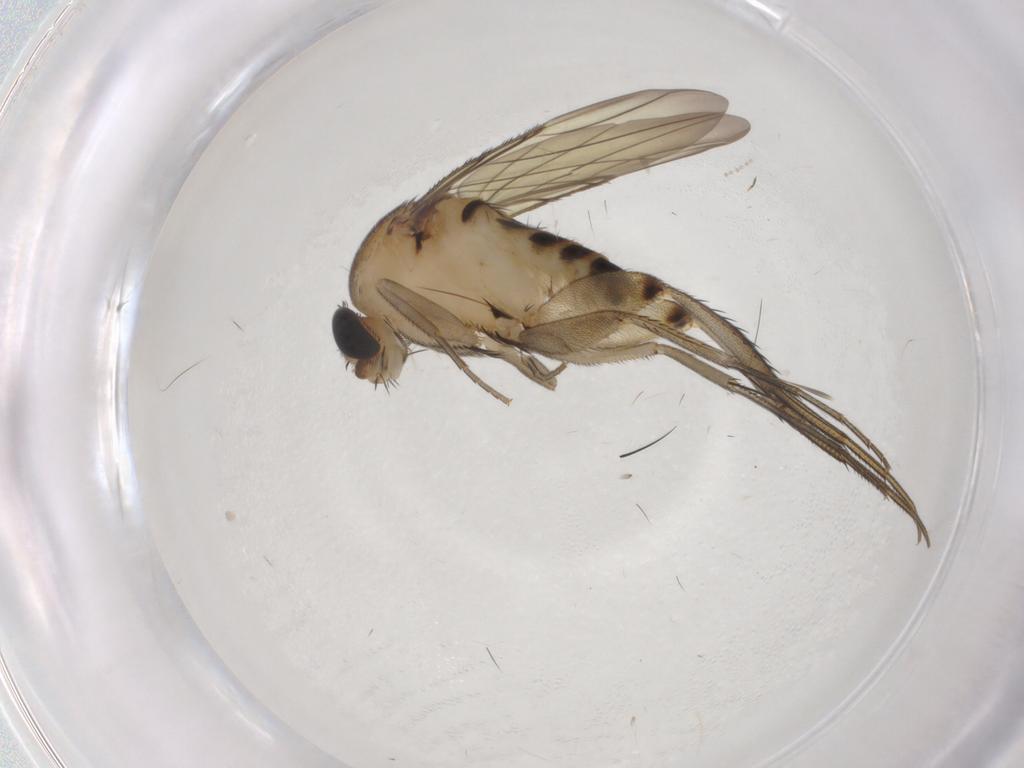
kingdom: Animalia
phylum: Arthropoda
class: Insecta
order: Diptera
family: Phoridae
